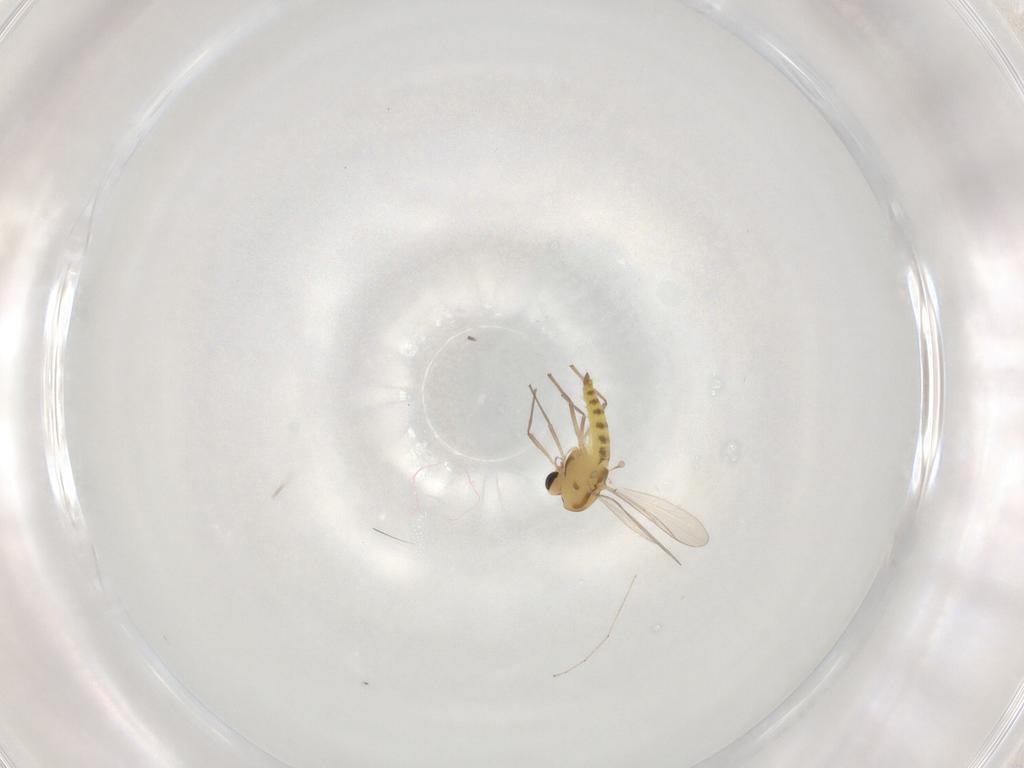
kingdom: Animalia
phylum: Arthropoda
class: Insecta
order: Diptera
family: Chironomidae
